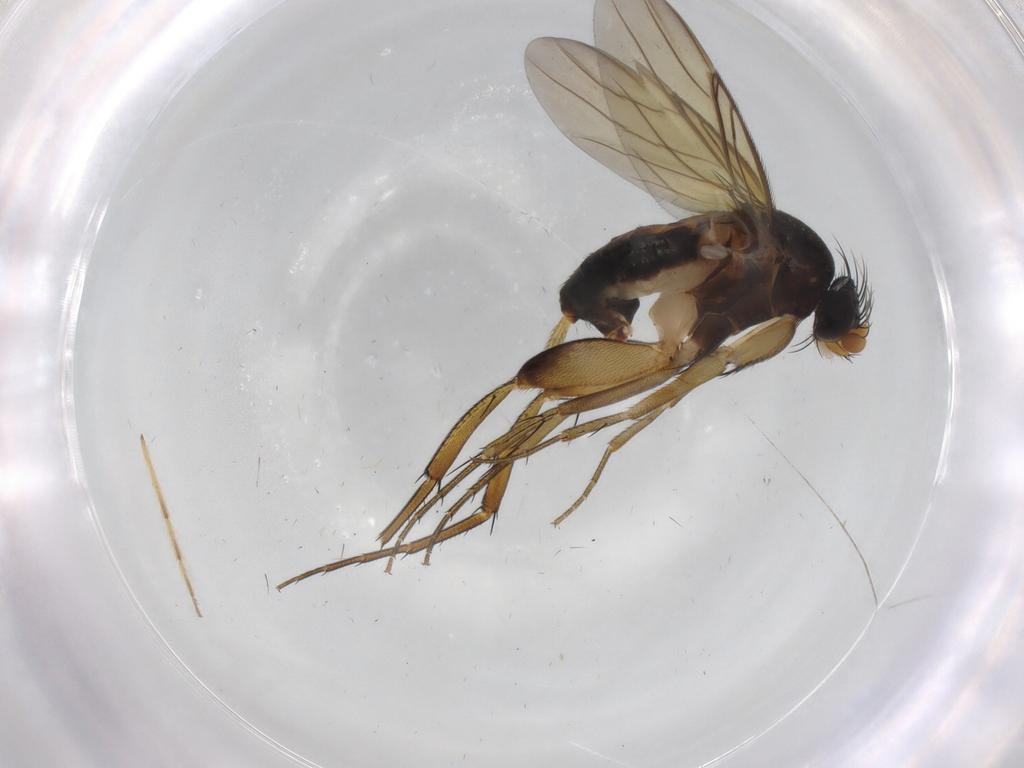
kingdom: Animalia
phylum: Arthropoda
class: Insecta
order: Diptera
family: Phoridae
